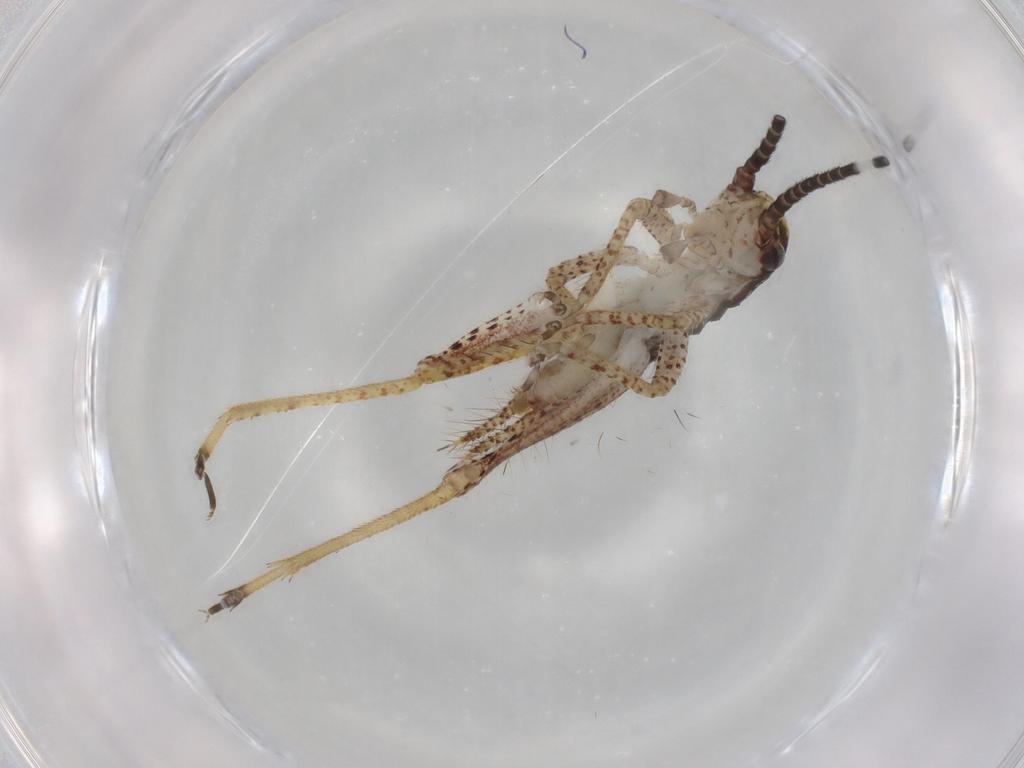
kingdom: Animalia
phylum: Arthropoda
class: Insecta
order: Orthoptera
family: Gryllidae
